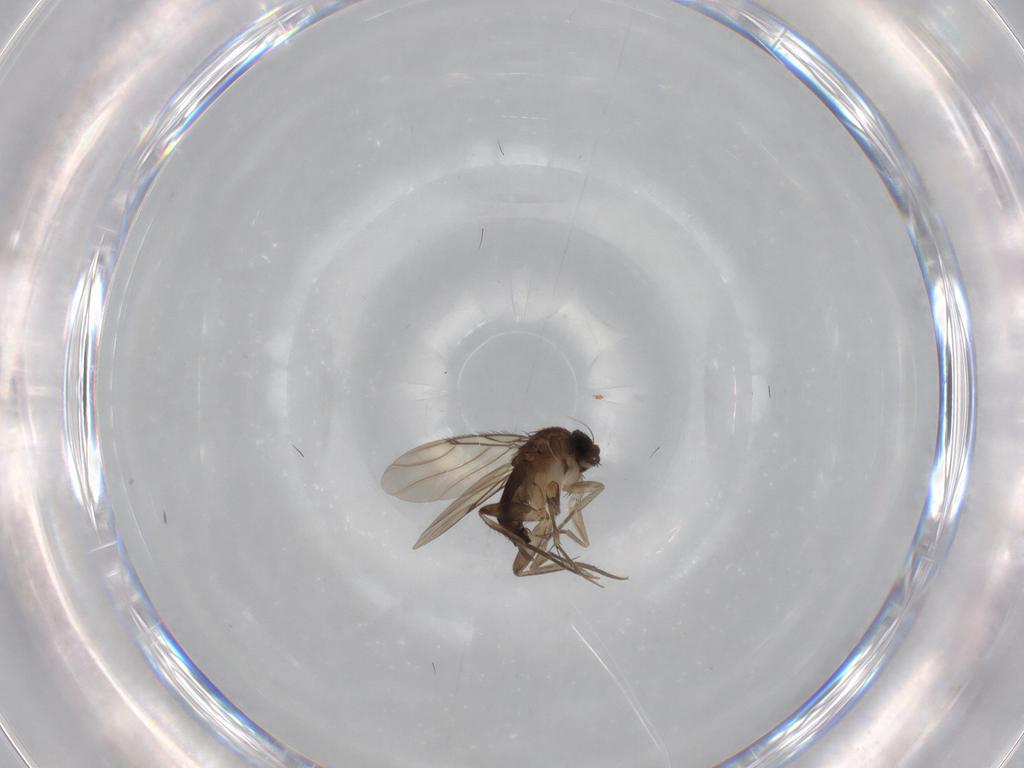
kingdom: Animalia
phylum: Arthropoda
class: Insecta
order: Diptera
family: Phoridae
